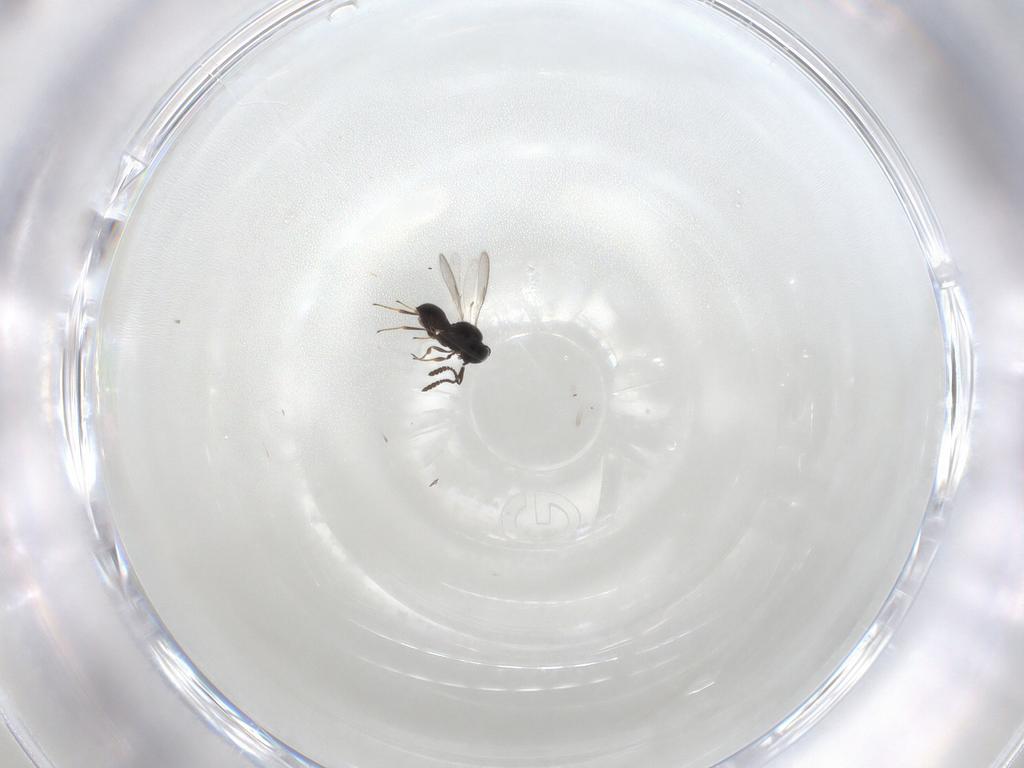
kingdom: Animalia
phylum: Arthropoda
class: Insecta
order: Hymenoptera
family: Scelionidae
